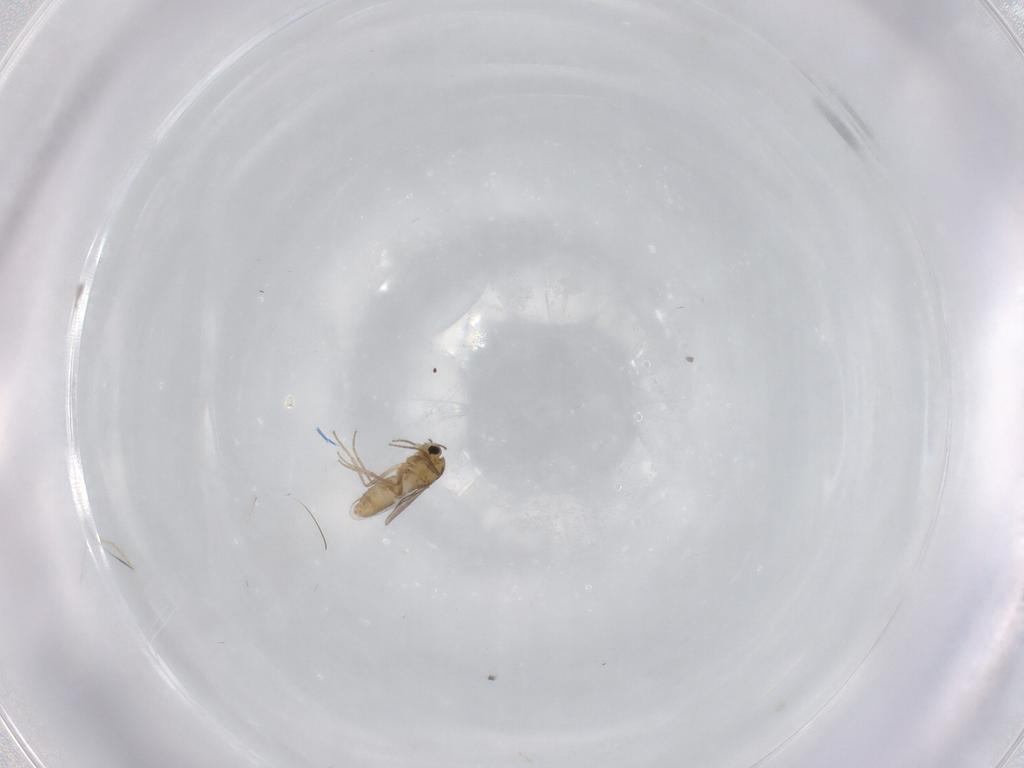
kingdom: Animalia
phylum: Arthropoda
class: Insecta
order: Diptera
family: Chironomidae
